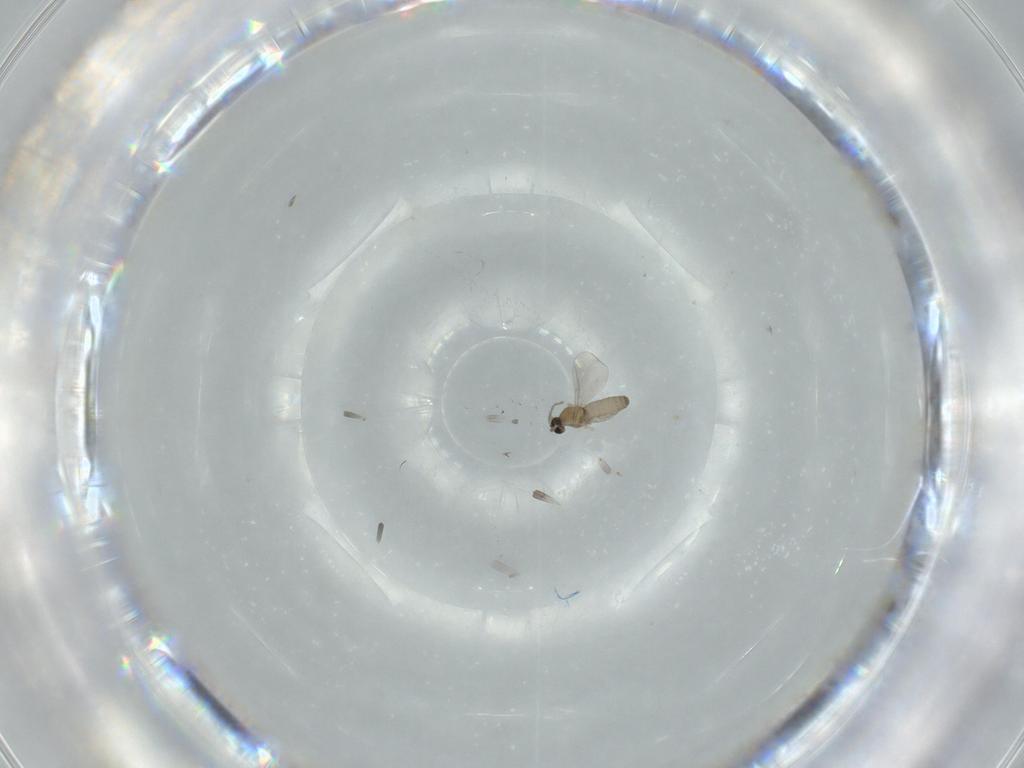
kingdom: Animalia
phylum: Arthropoda
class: Insecta
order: Diptera
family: Cecidomyiidae
